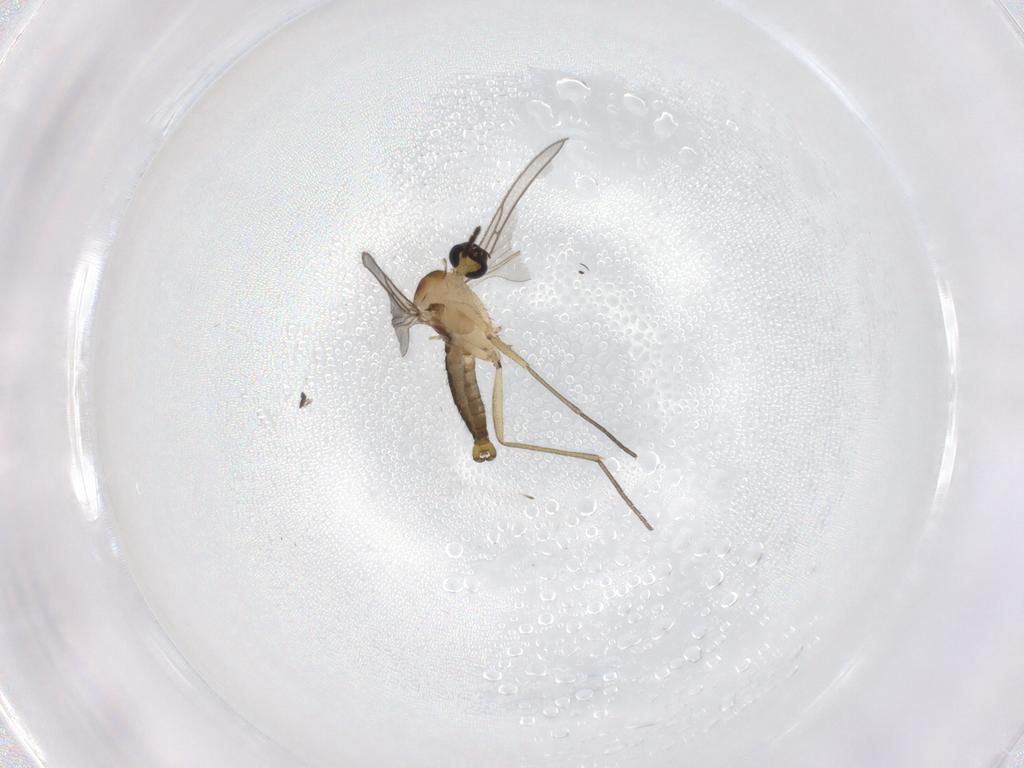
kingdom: Animalia
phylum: Arthropoda
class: Insecta
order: Diptera
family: Sciaridae
